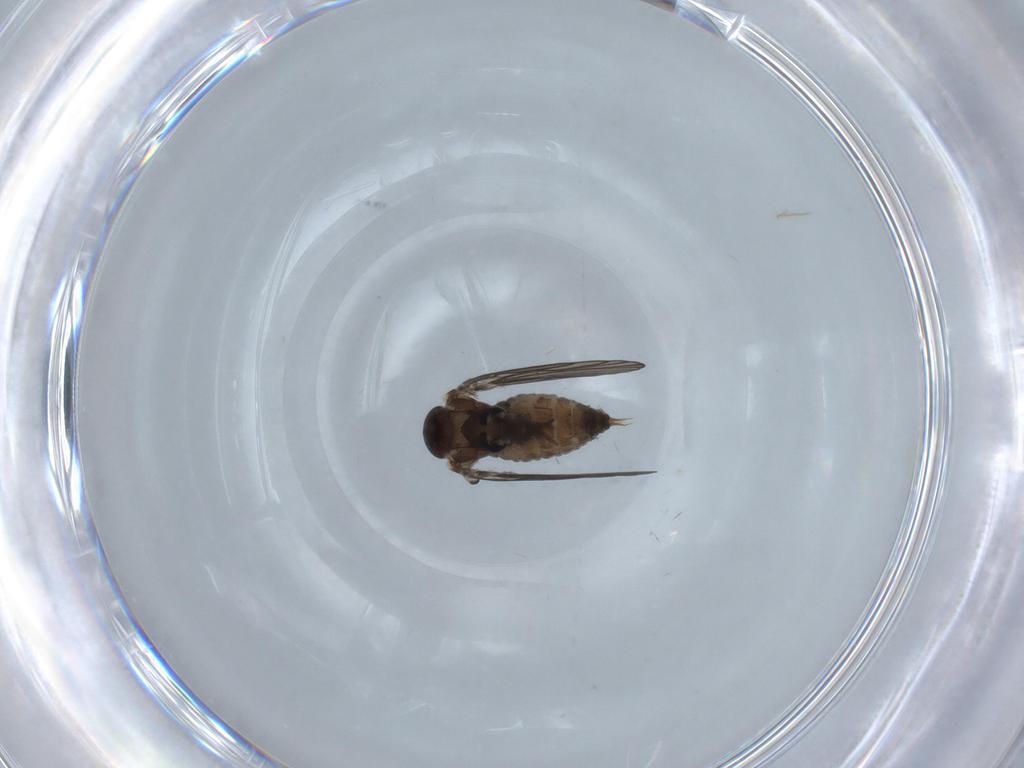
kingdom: Animalia
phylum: Arthropoda
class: Insecta
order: Diptera
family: Psychodidae
